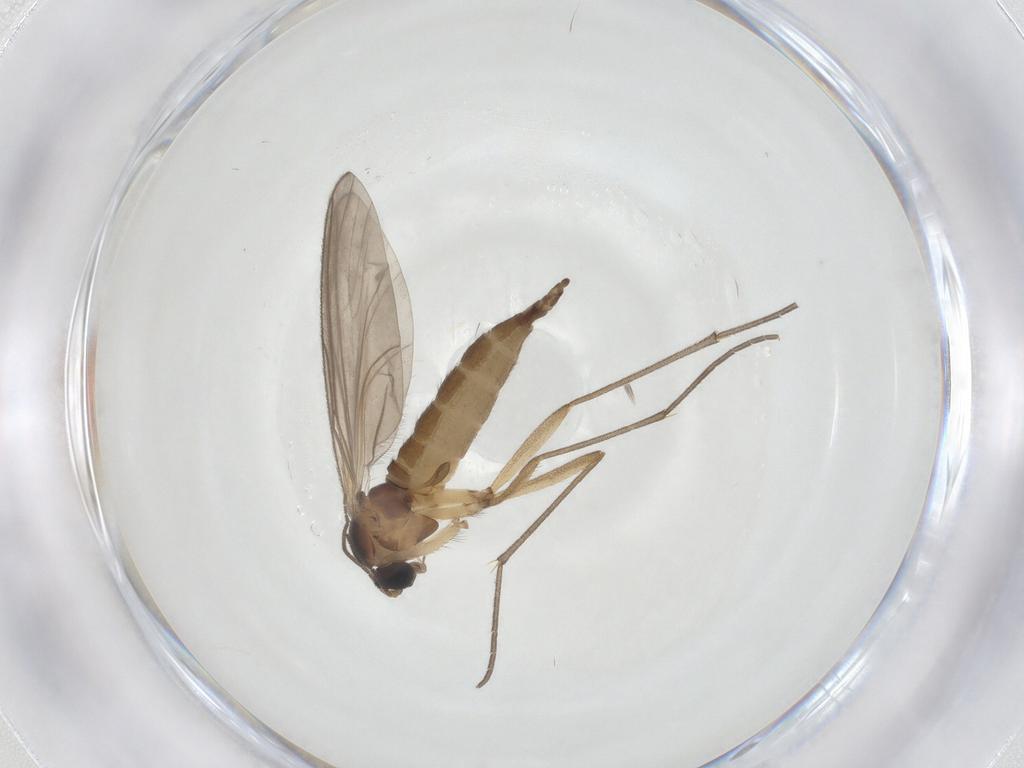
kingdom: Animalia
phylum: Arthropoda
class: Insecta
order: Diptera
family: Sciaridae
